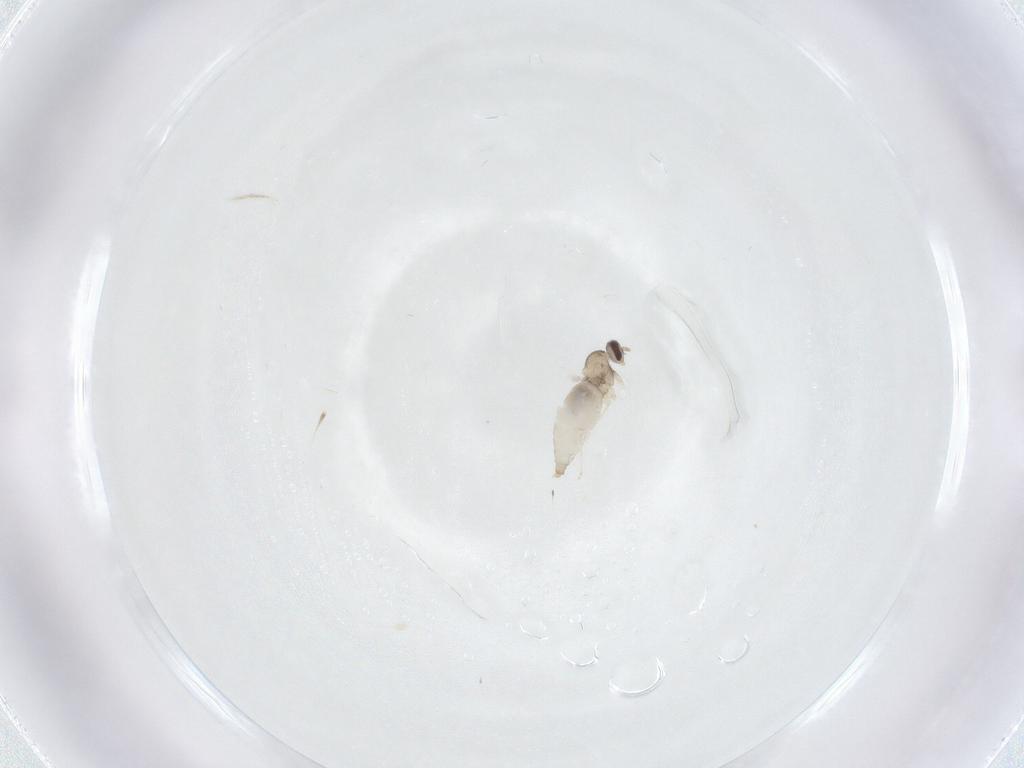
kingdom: Animalia
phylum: Arthropoda
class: Insecta
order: Diptera
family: Cecidomyiidae
